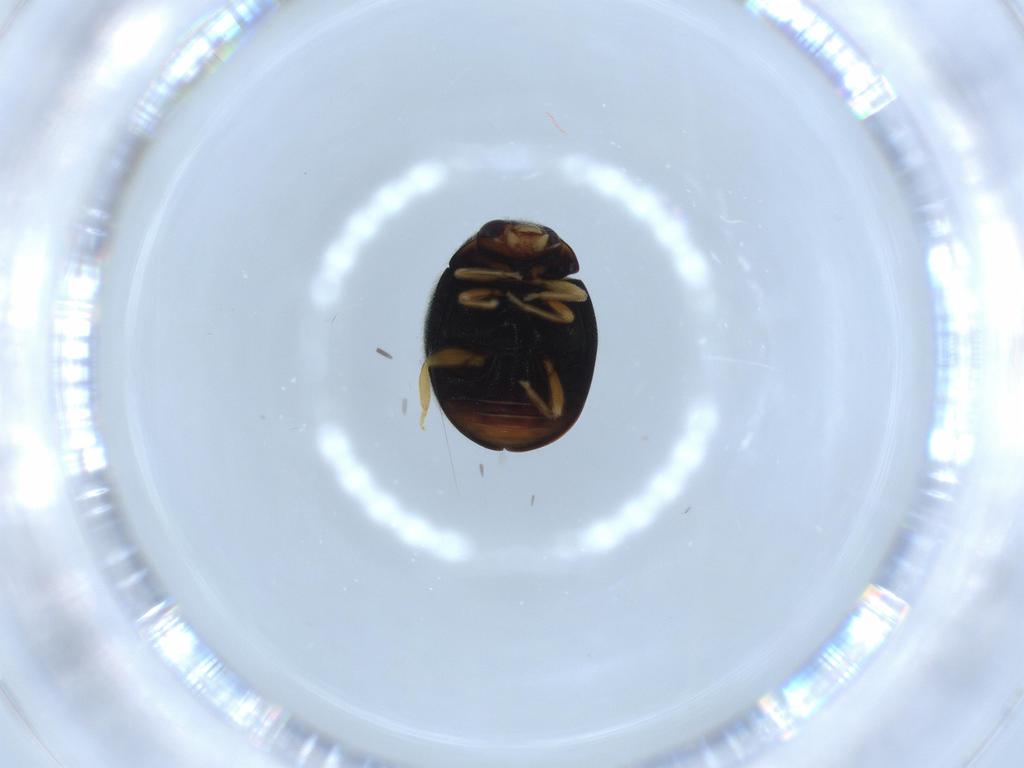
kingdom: Animalia
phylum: Arthropoda
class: Insecta
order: Coleoptera
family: Coccinellidae
